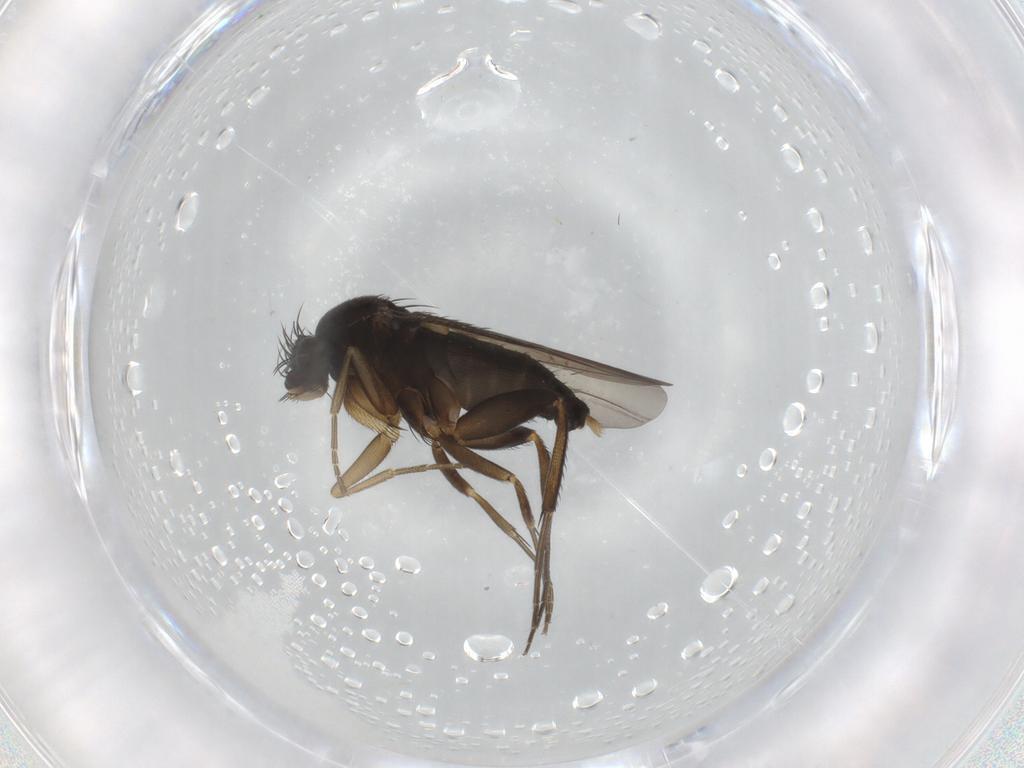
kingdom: Animalia
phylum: Arthropoda
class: Insecta
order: Diptera
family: Phoridae
